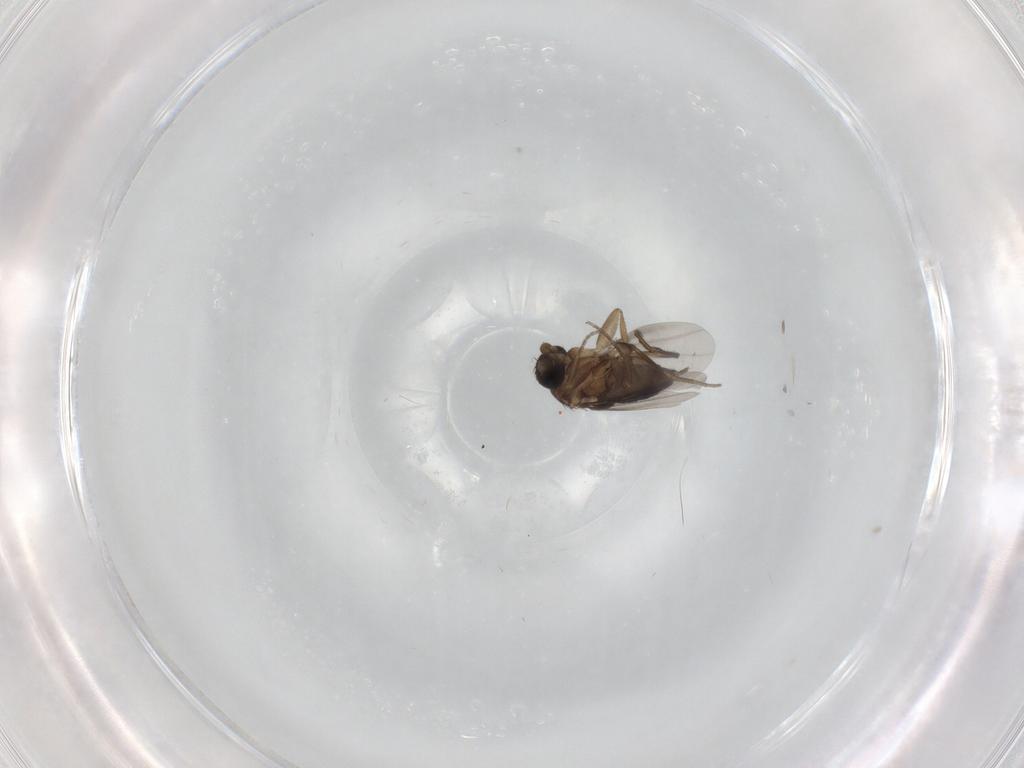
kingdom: Animalia
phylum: Arthropoda
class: Insecta
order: Diptera
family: Phoridae
